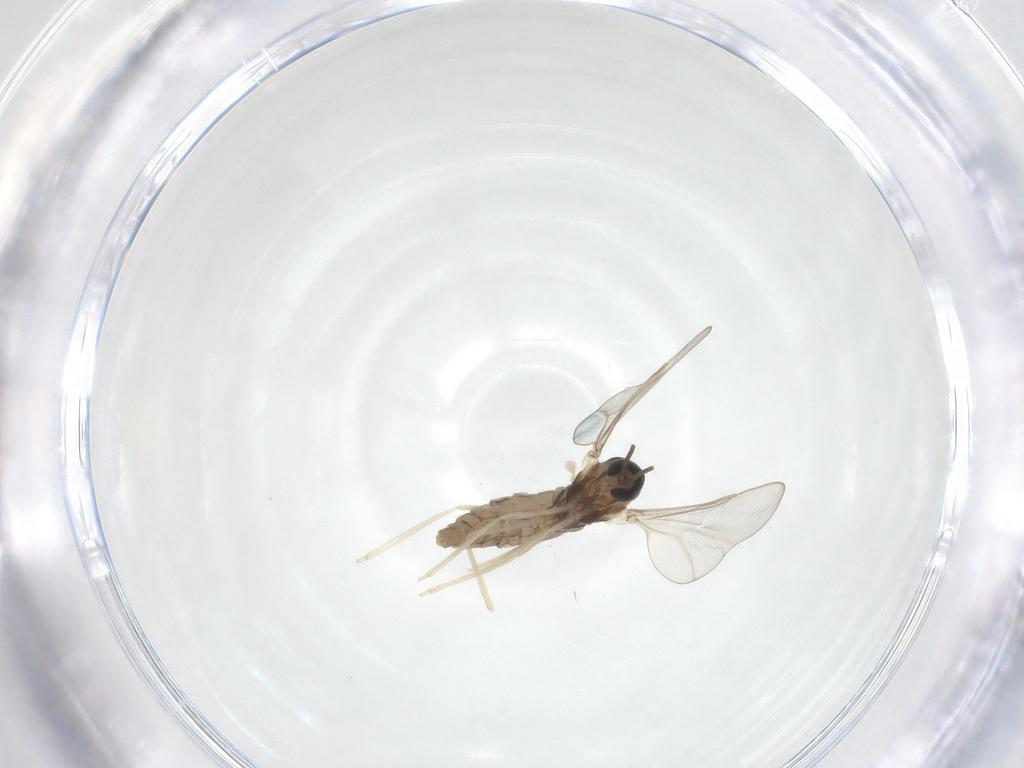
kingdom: Animalia
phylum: Arthropoda
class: Insecta
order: Diptera
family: Cecidomyiidae
